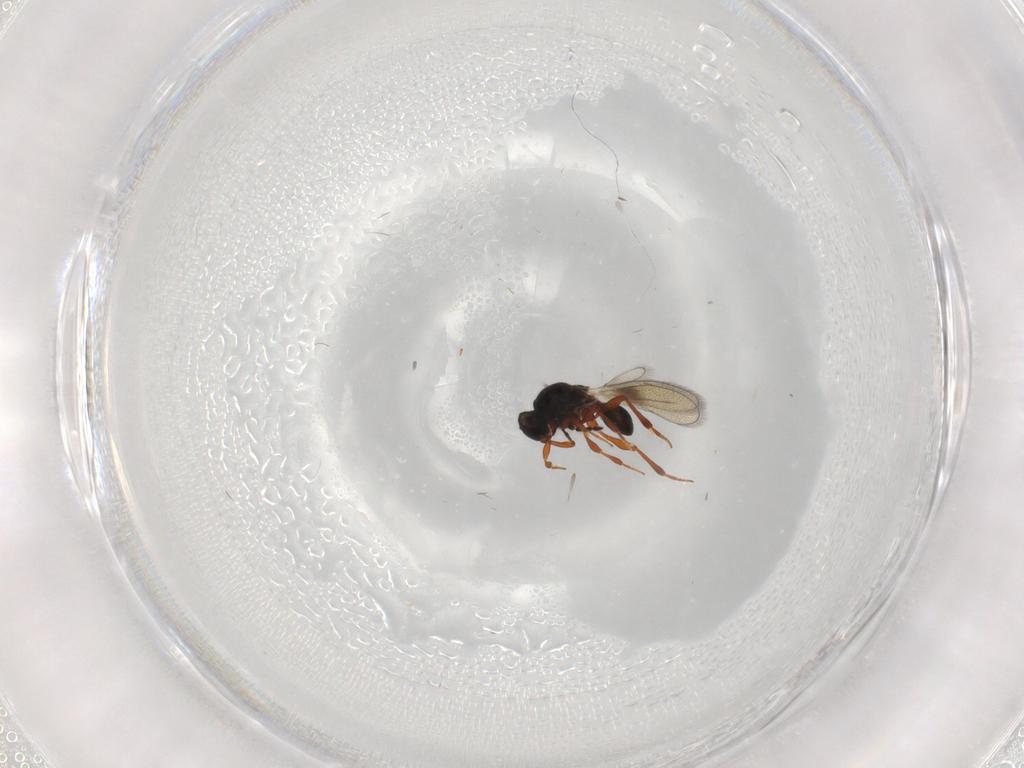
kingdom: Animalia
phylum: Arthropoda
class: Insecta
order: Hymenoptera
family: Platygastridae
